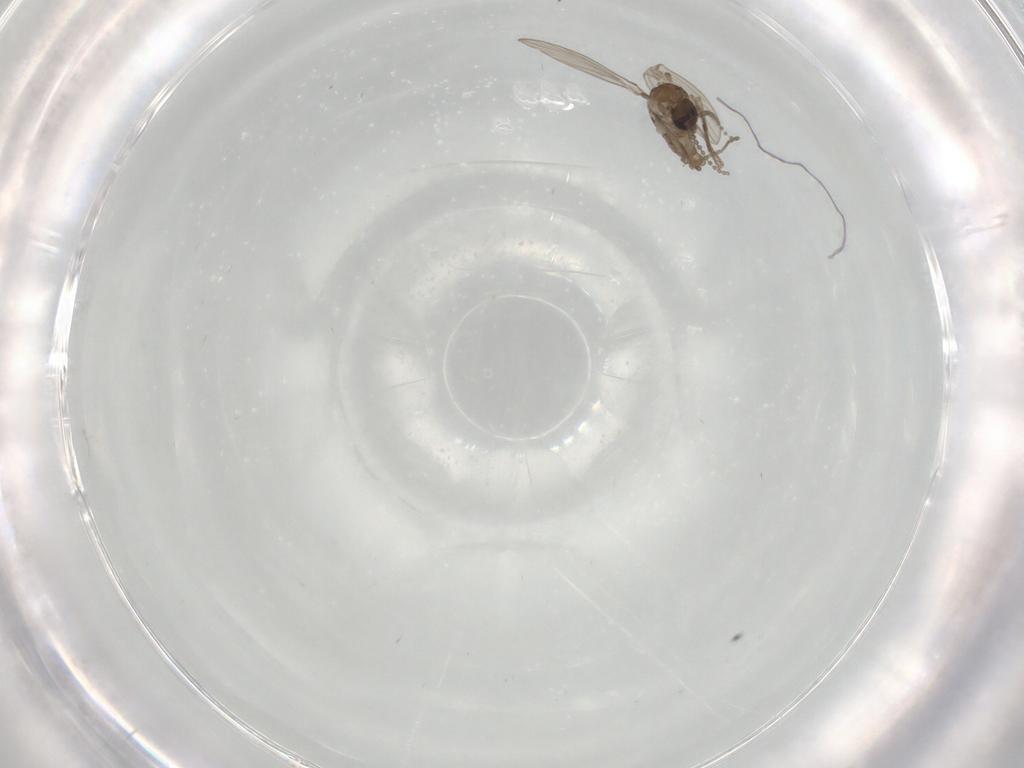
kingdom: Animalia
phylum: Arthropoda
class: Insecta
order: Diptera
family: Psychodidae
